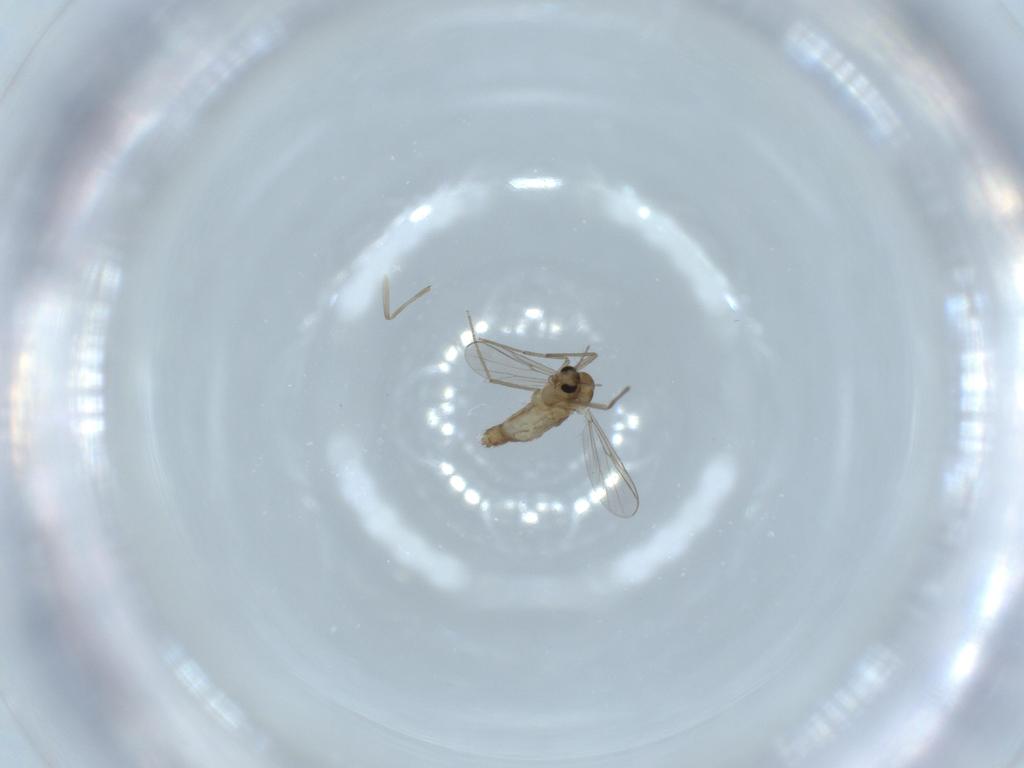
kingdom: Animalia
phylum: Arthropoda
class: Insecta
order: Diptera
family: Chironomidae
